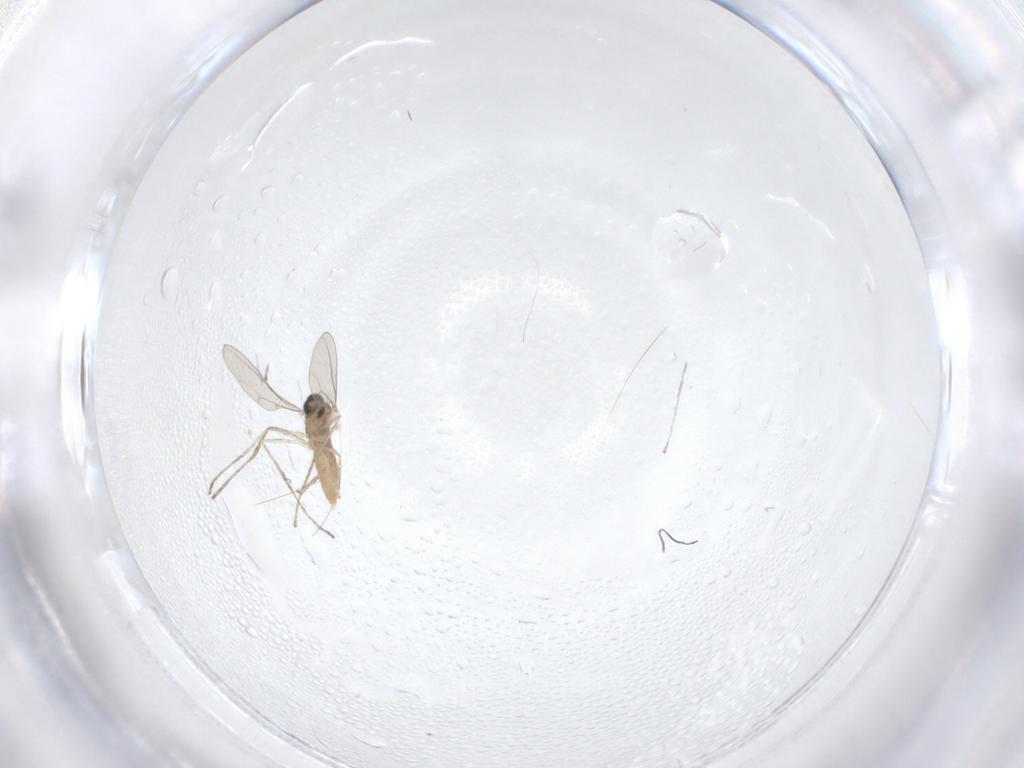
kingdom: Animalia
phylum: Arthropoda
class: Insecta
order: Diptera
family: Cecidomyiidae
